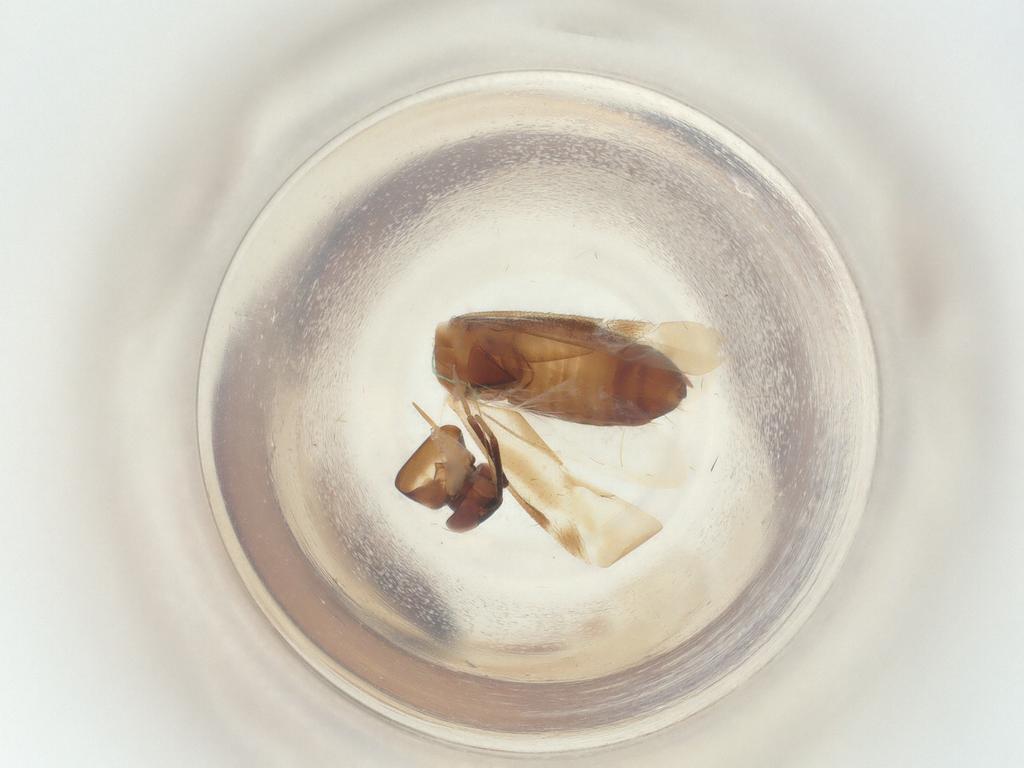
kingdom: Animalia
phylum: Arthropoda
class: Insecta
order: Hemiptera
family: Miridae
